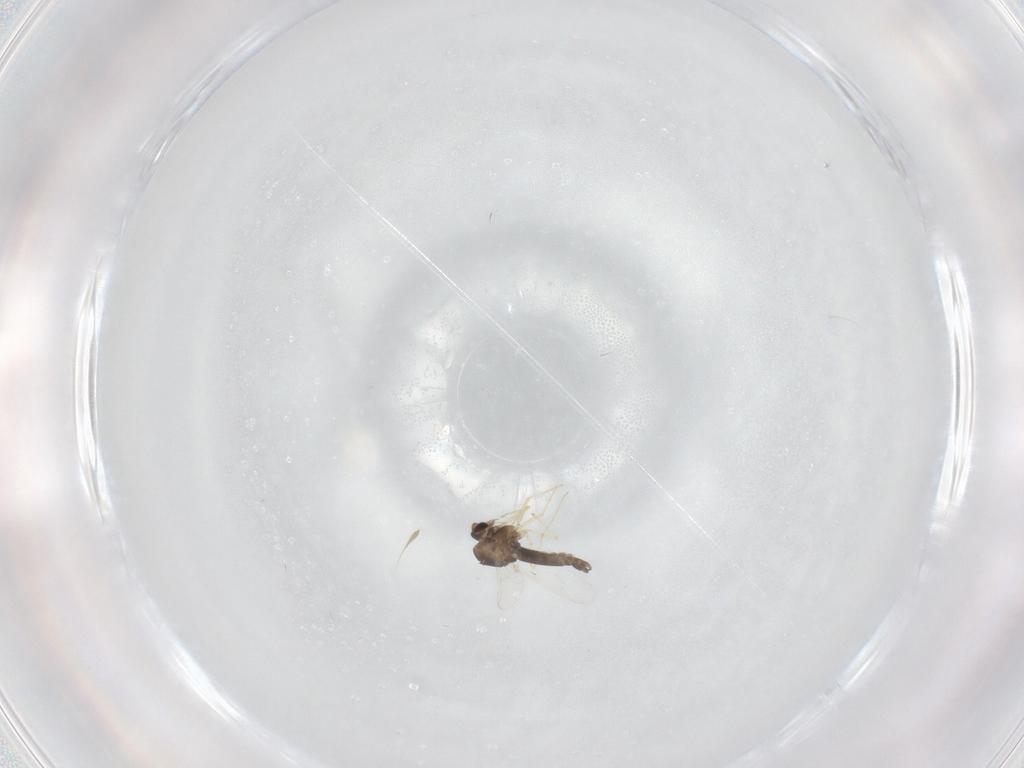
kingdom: Animalia
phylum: Arthropoda
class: Insecta
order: Diptera
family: Chironomidae
